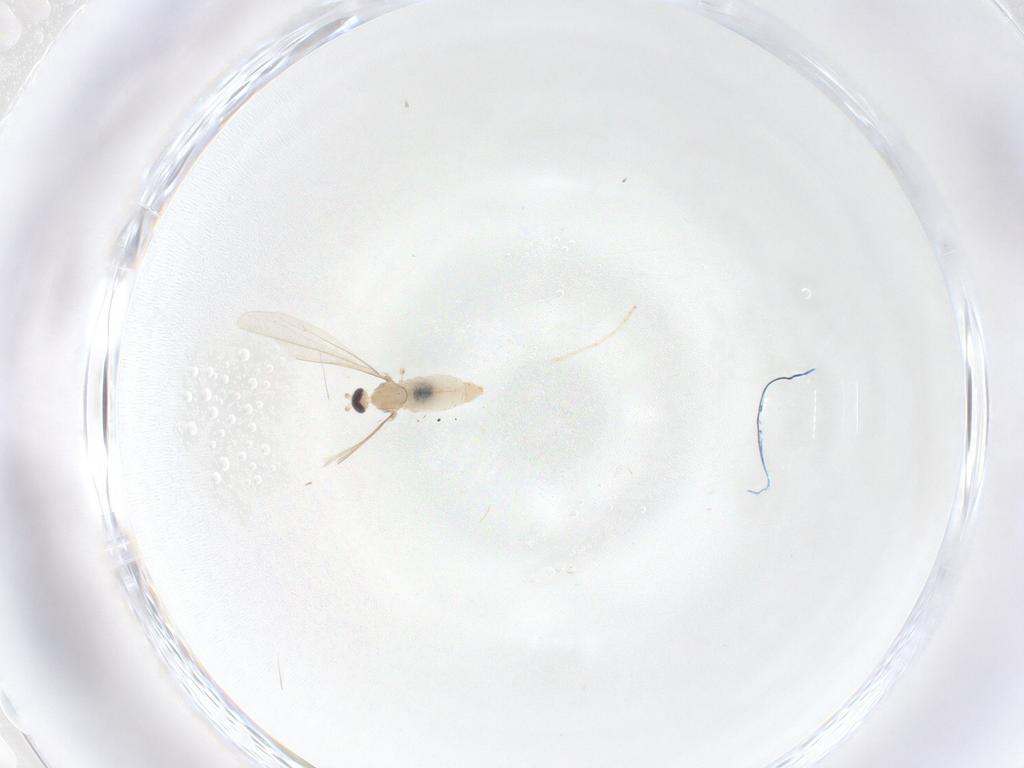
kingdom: Animalia
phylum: Arthropoda
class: Insecta
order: Diptera
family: Cecidomyiidae
